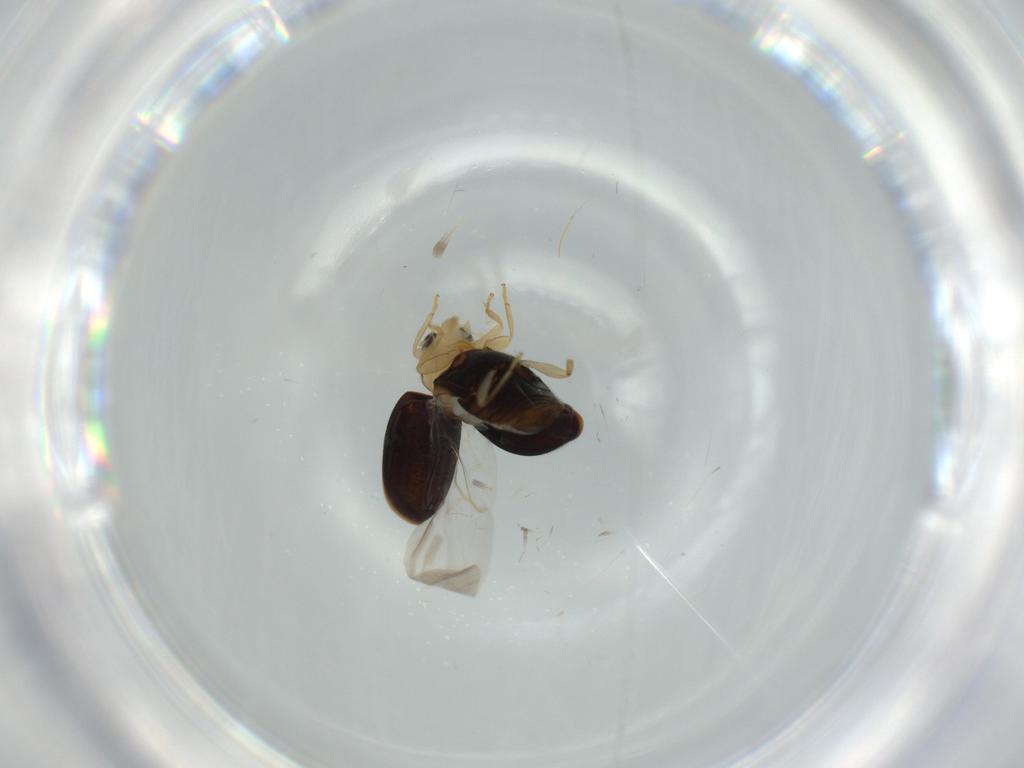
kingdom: Animalia
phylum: Arthropoda
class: Insecta
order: Coleoptera
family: Coccinellidae
